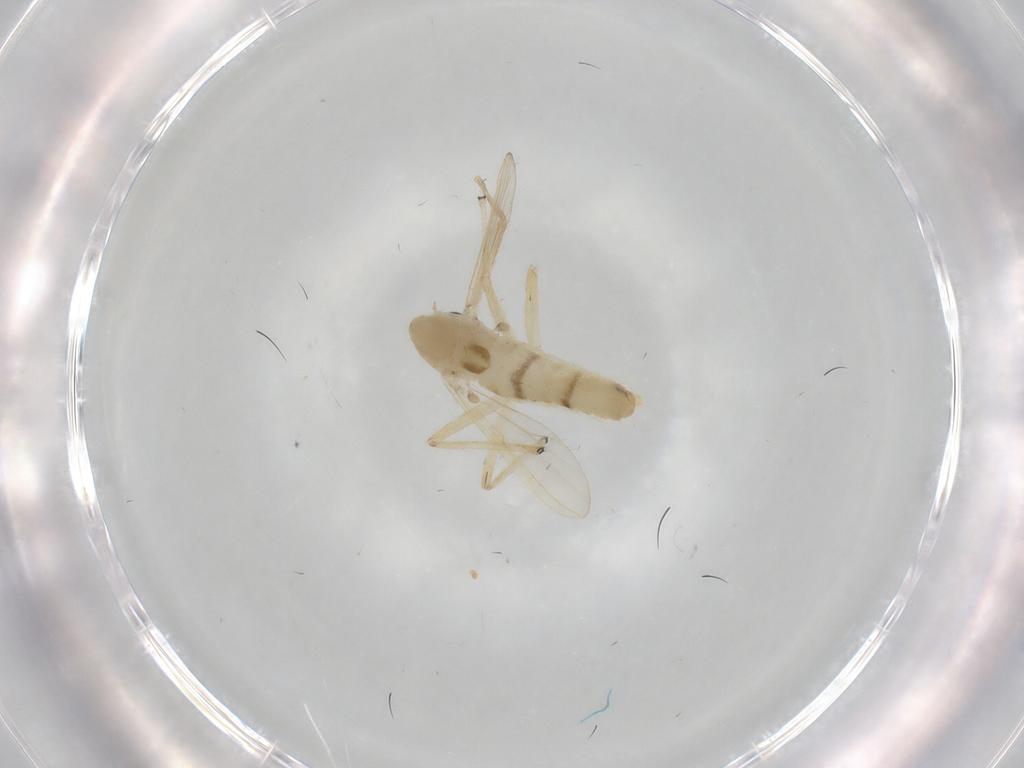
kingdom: Animalia
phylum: Arthropoda
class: Insecta
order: Diptera
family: Chironomidae
